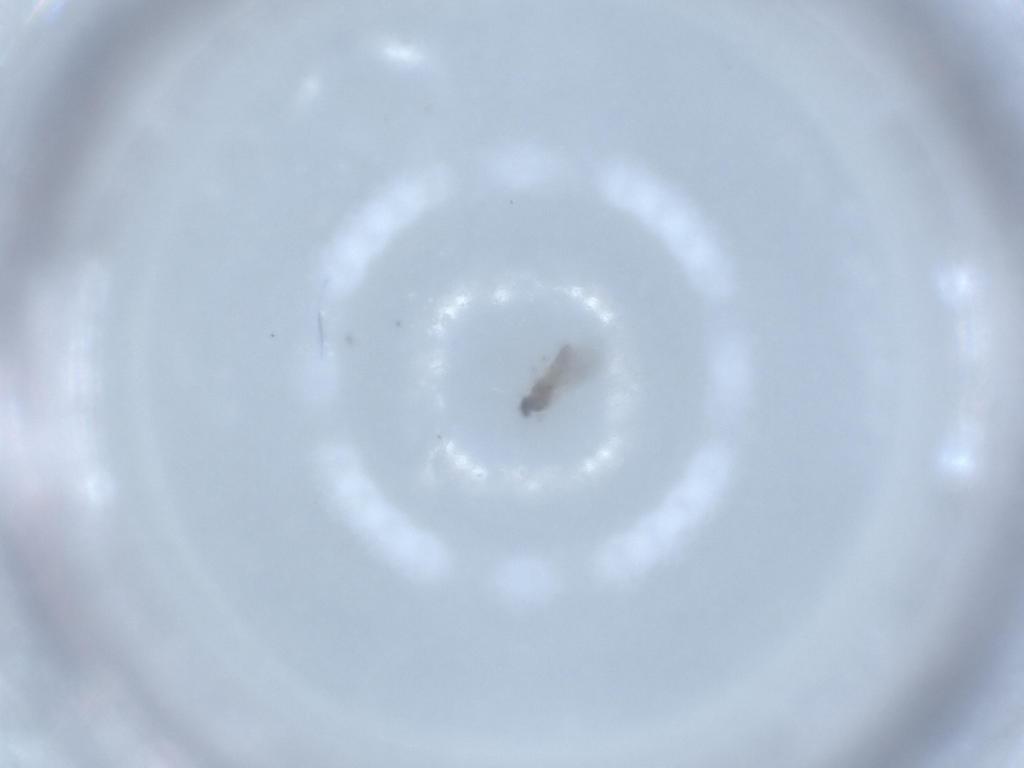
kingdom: Animalia
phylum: Arthropoda
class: Insecta
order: Diptera
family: Cecidomyiidae
